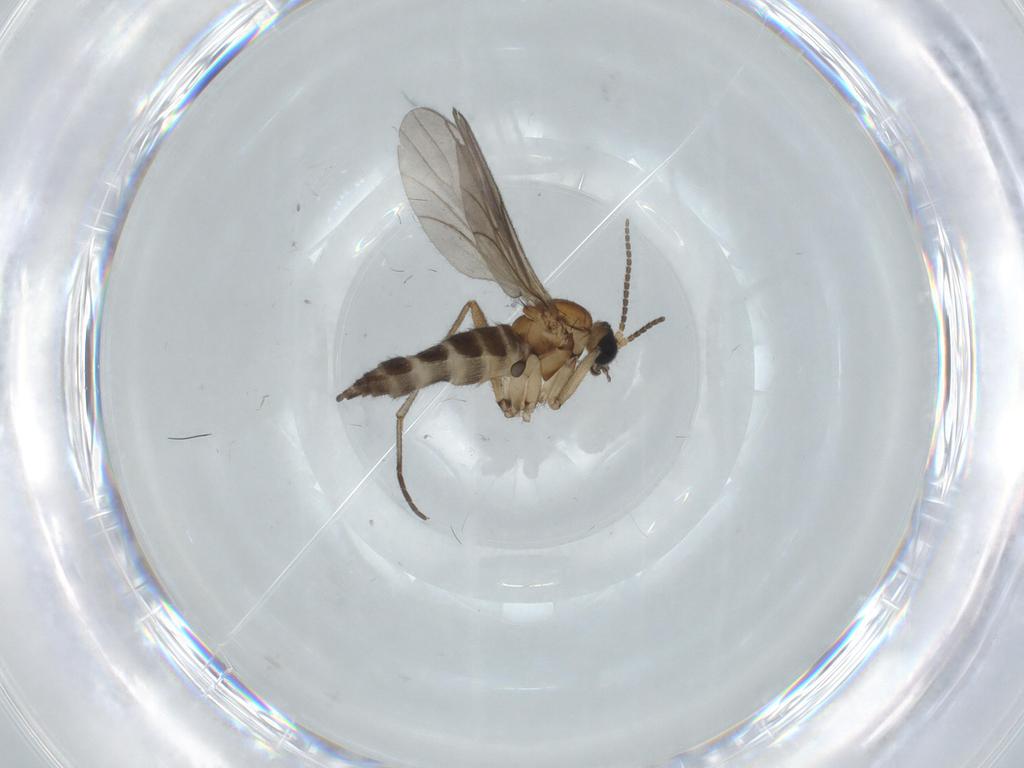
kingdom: Animalia
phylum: Arthropoda
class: Insecta
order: Diptera
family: Sciaridae
